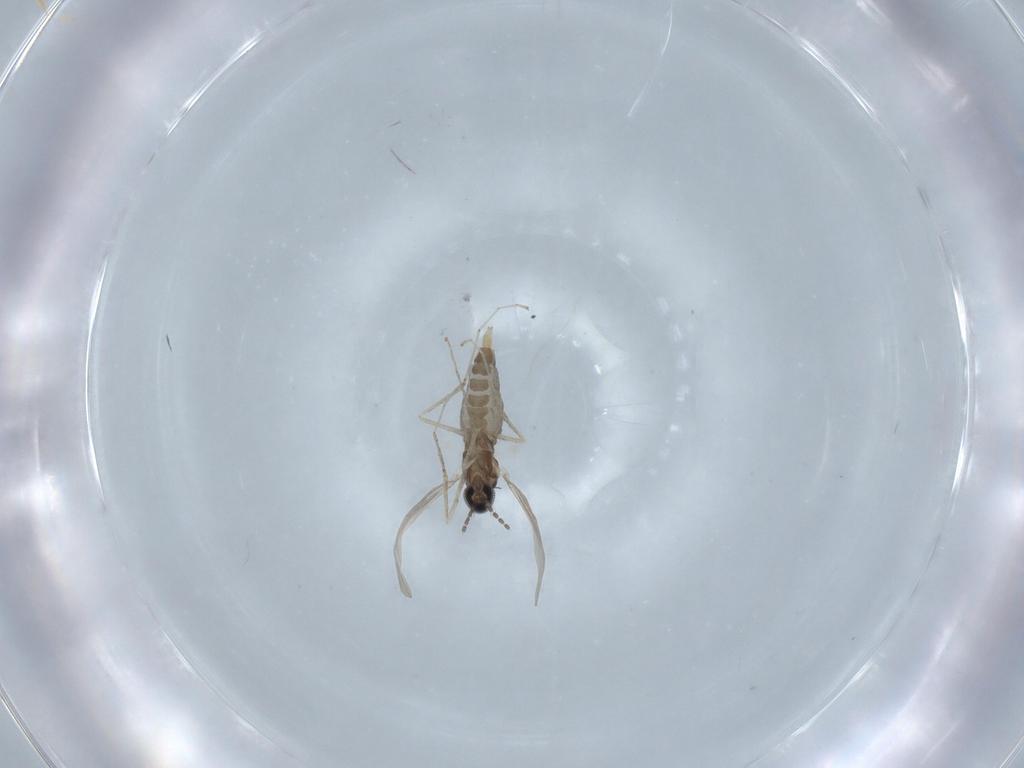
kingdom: Animalia
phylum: Arthropoda
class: Insecta
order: Diptera
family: Cecidomyiidae
